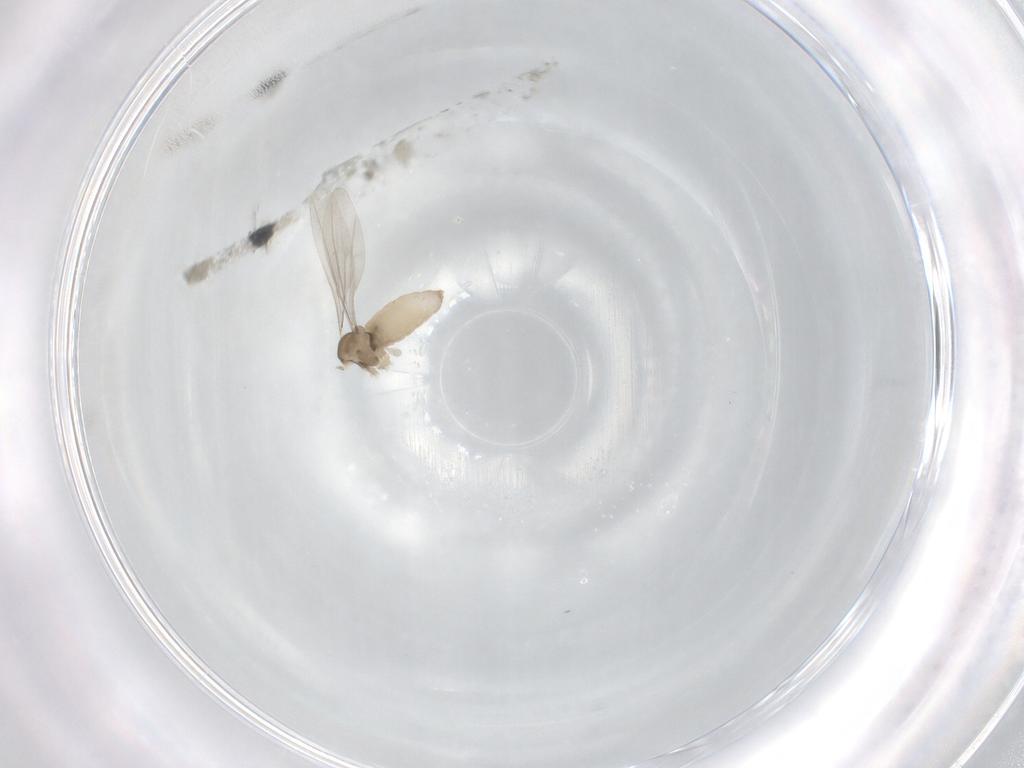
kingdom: Animalia
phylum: Arthropoda
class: Insecta
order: Diptera
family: Cecidomyiidae
